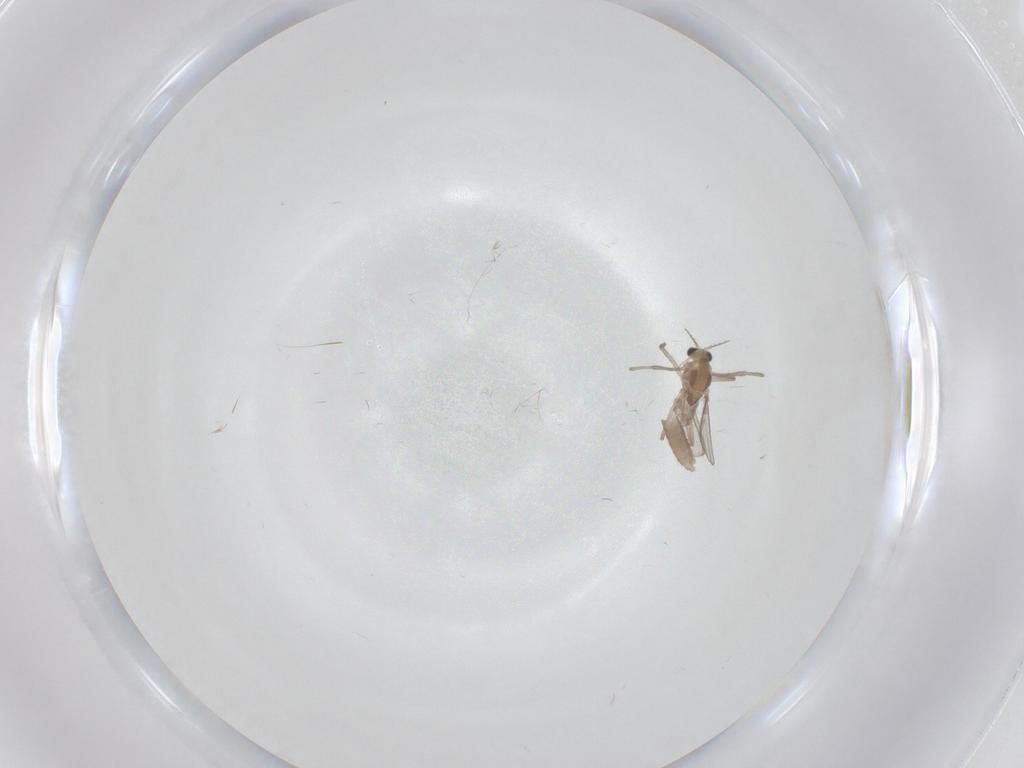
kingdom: Animalia
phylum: Arthropoda
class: Insecta
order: Diptera
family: Chironomidae
